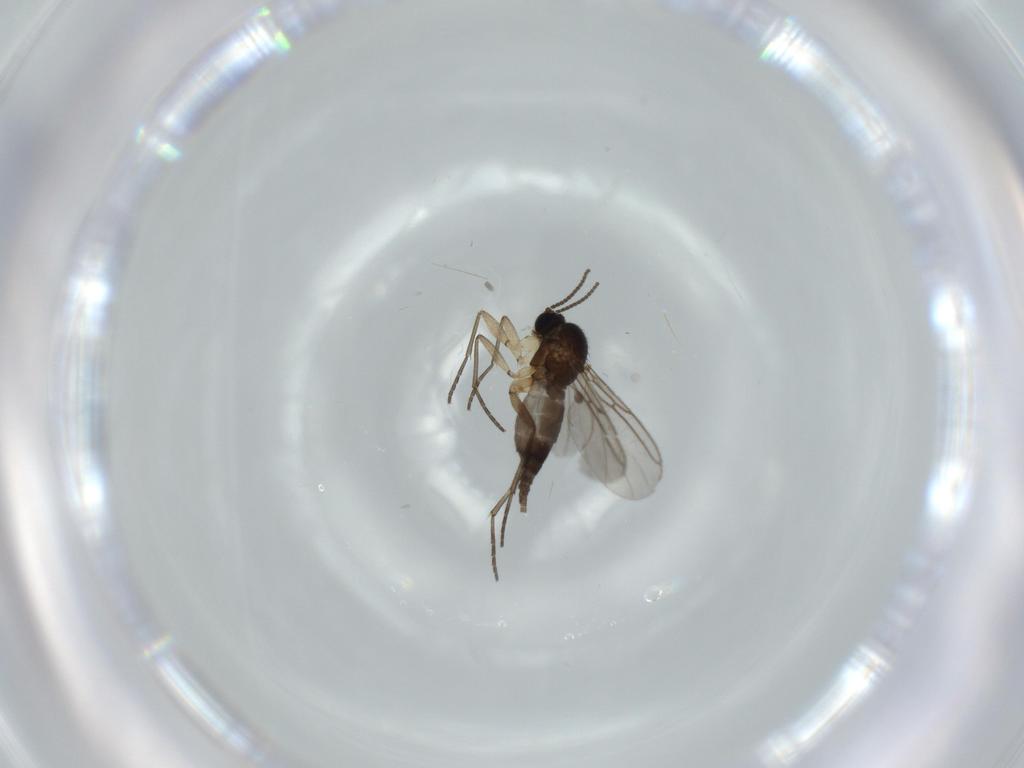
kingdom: Animalia
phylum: Arthropoda
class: Insecta
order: Diptera
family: Sciaridae
